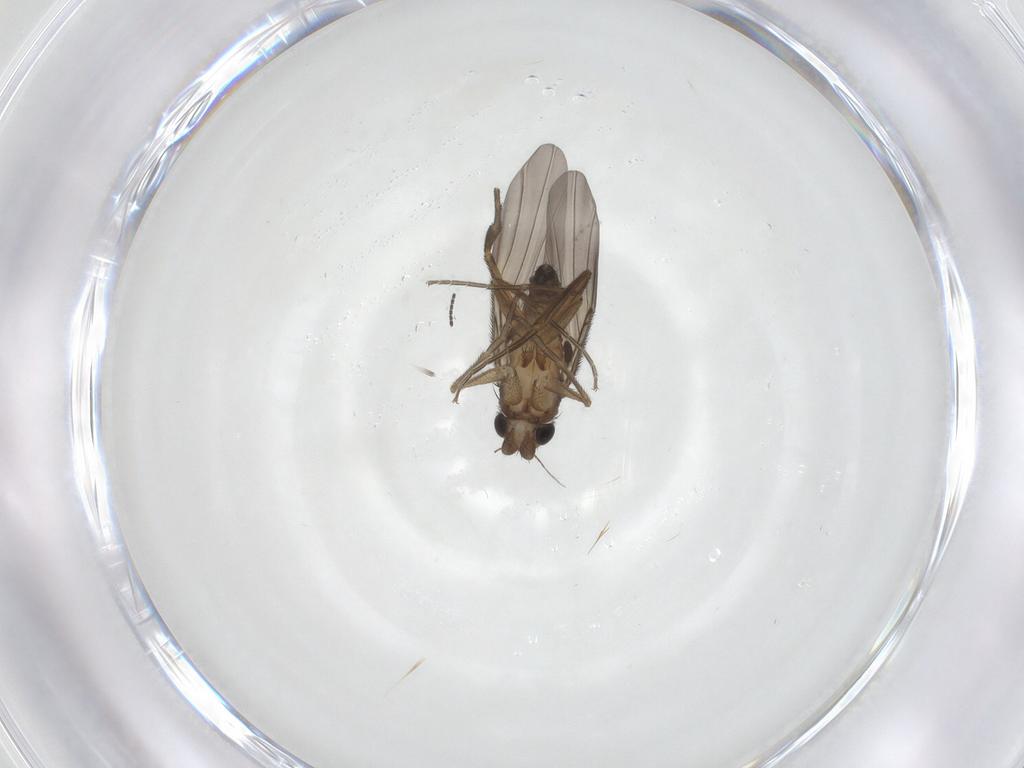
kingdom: Animalia
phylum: Arthropoda
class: Insecta
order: Diptera
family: Phoridae
